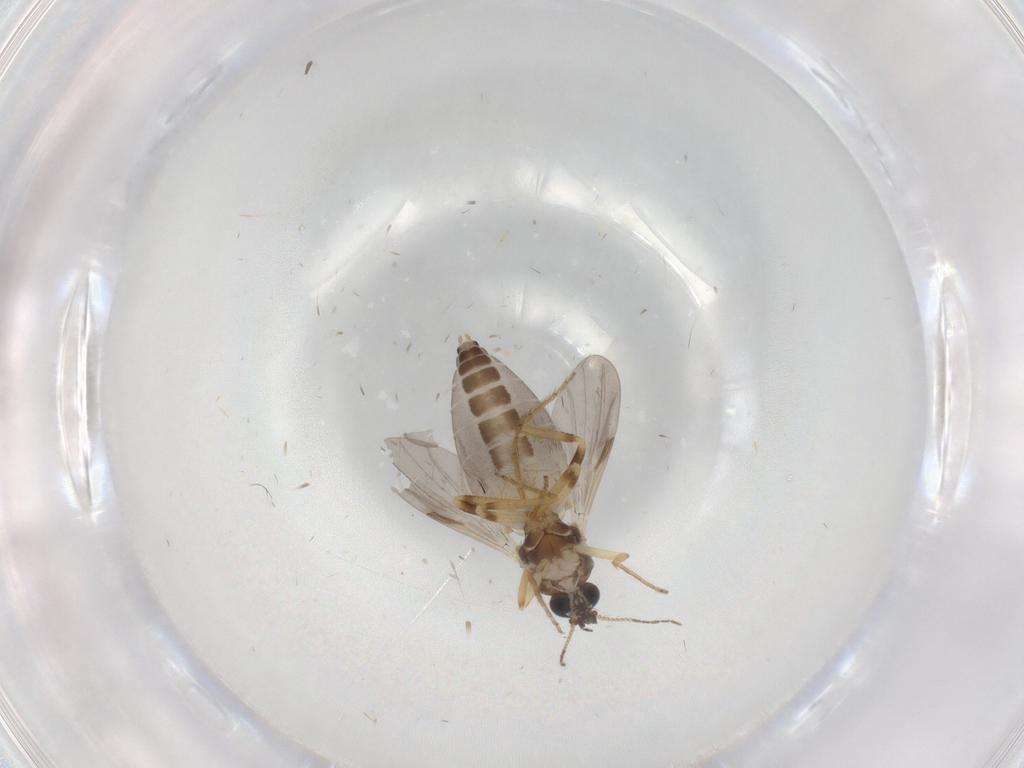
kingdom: Animalia
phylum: Arthropoda
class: Insecta
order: Diptera
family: Ceratopogonidae
